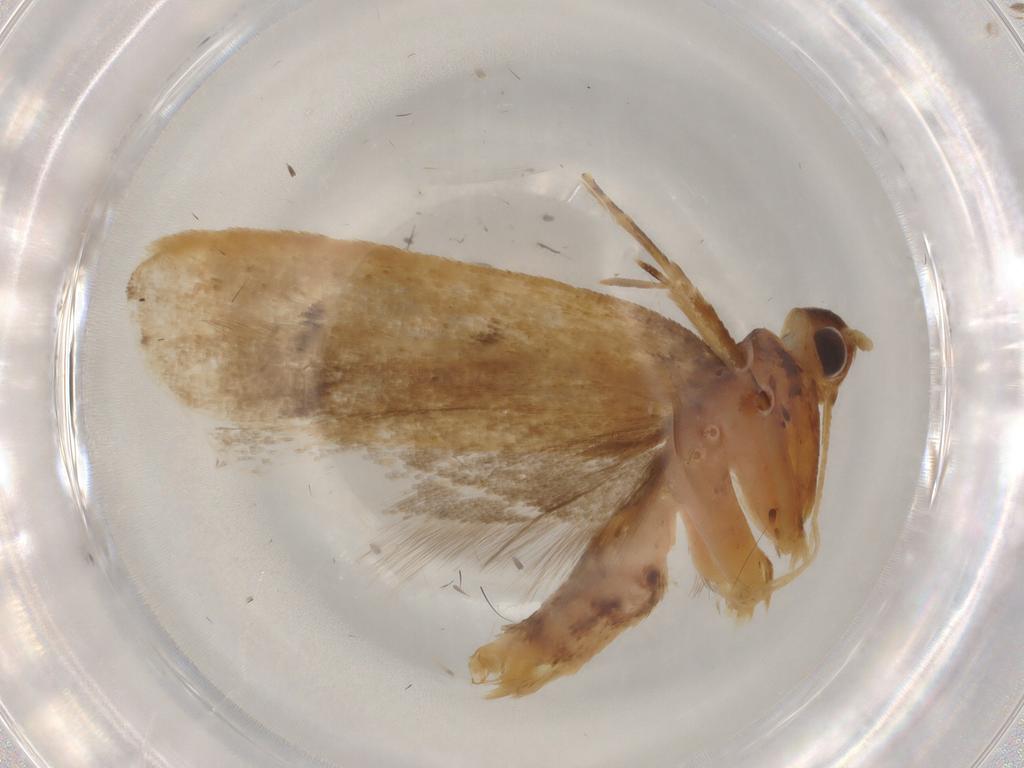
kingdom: Animalia
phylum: Arthropoda
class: Insecta
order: Lepidoptera
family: Lecithoceridae
